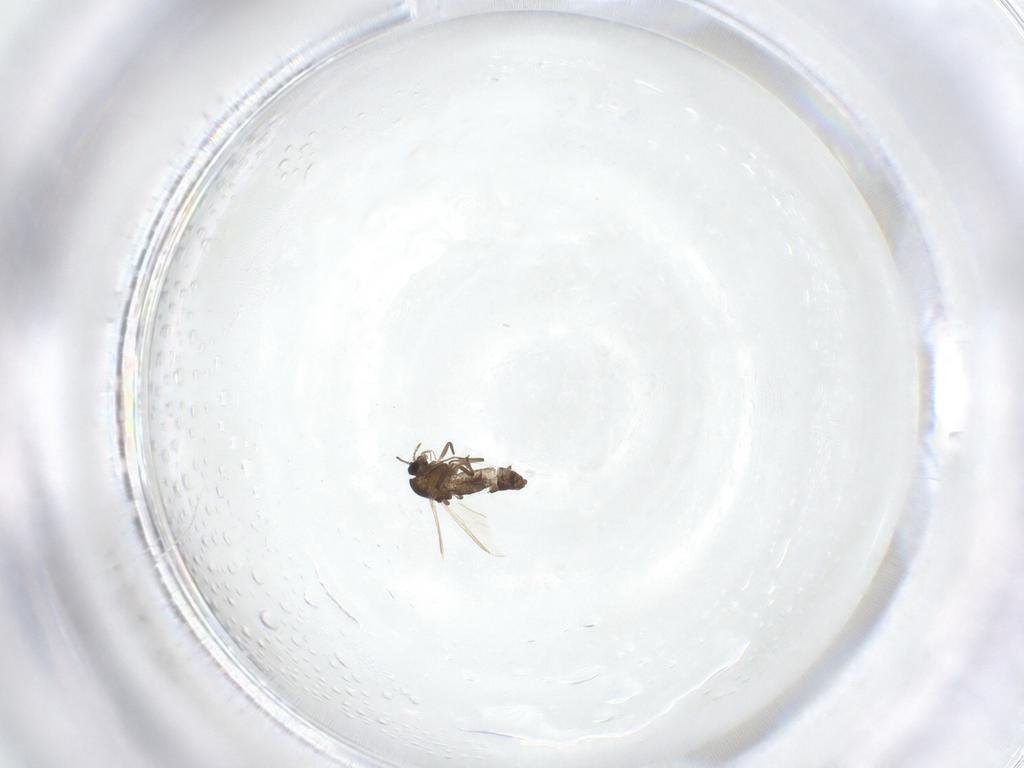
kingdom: Animalia
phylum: Arthropoda
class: Insecta
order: Diptera
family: Chironomidae
